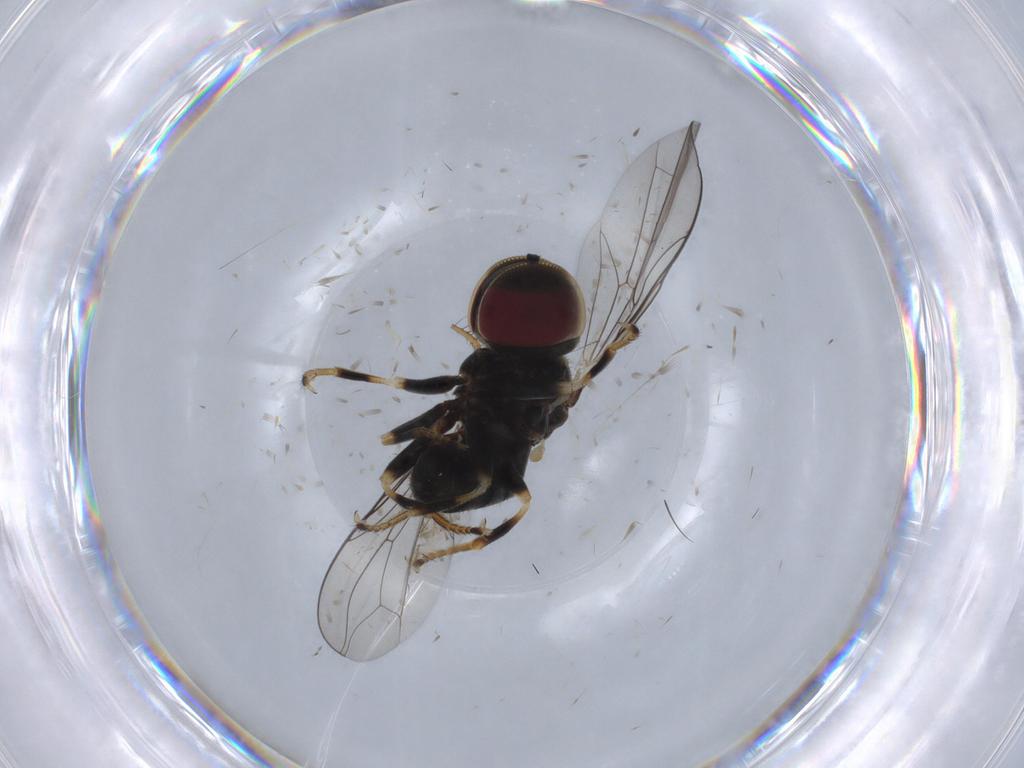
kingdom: Animalia
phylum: Arthropoda
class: Insecta
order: Diptera
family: Pipunculidae
